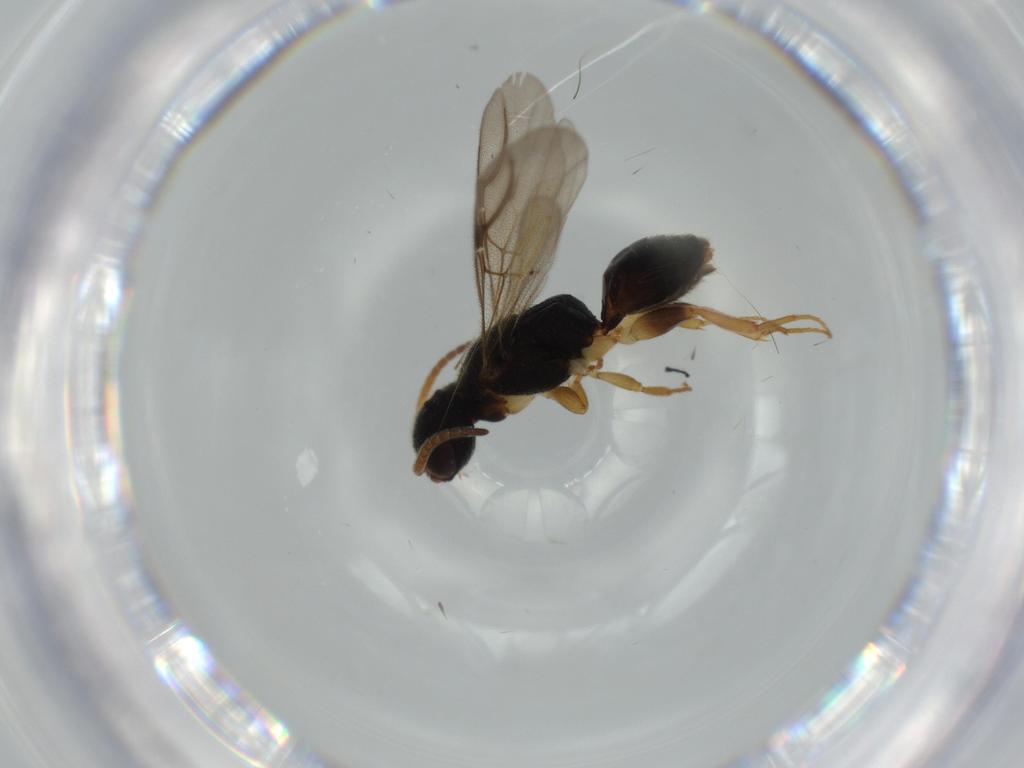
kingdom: Animalia
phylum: Arthropoda
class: Insecta
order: Hymenoptera
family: Bethylidae
